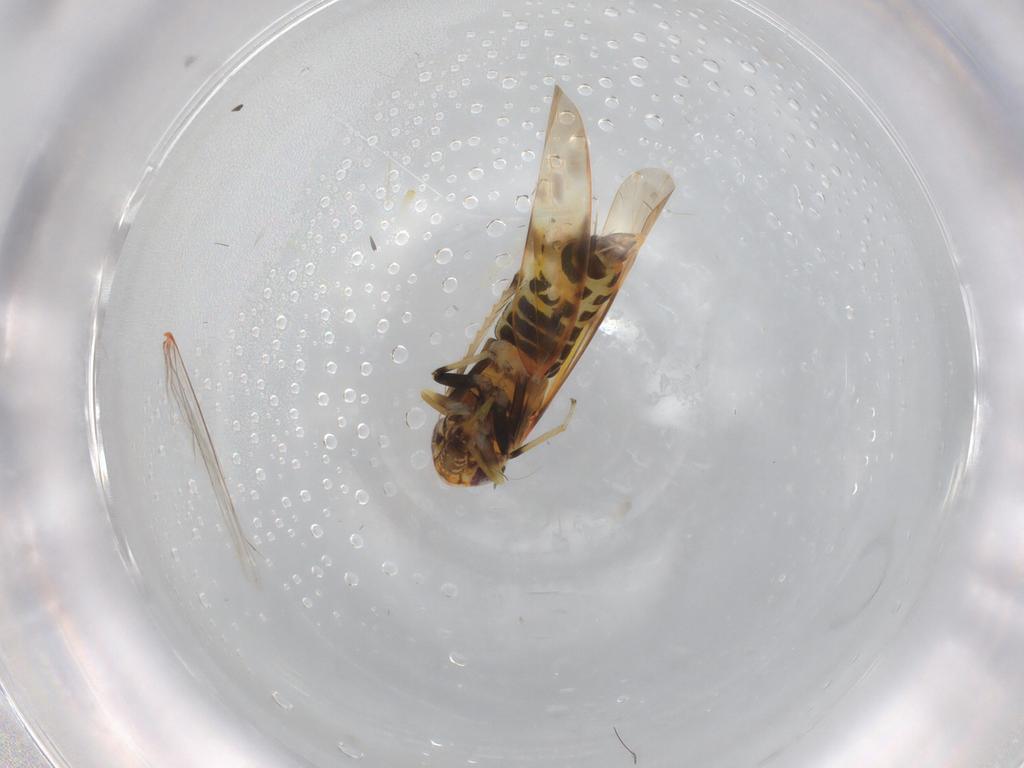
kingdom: Animalia
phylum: Arthropoda
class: Insecta
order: Hemiptera
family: Cicadellidae
